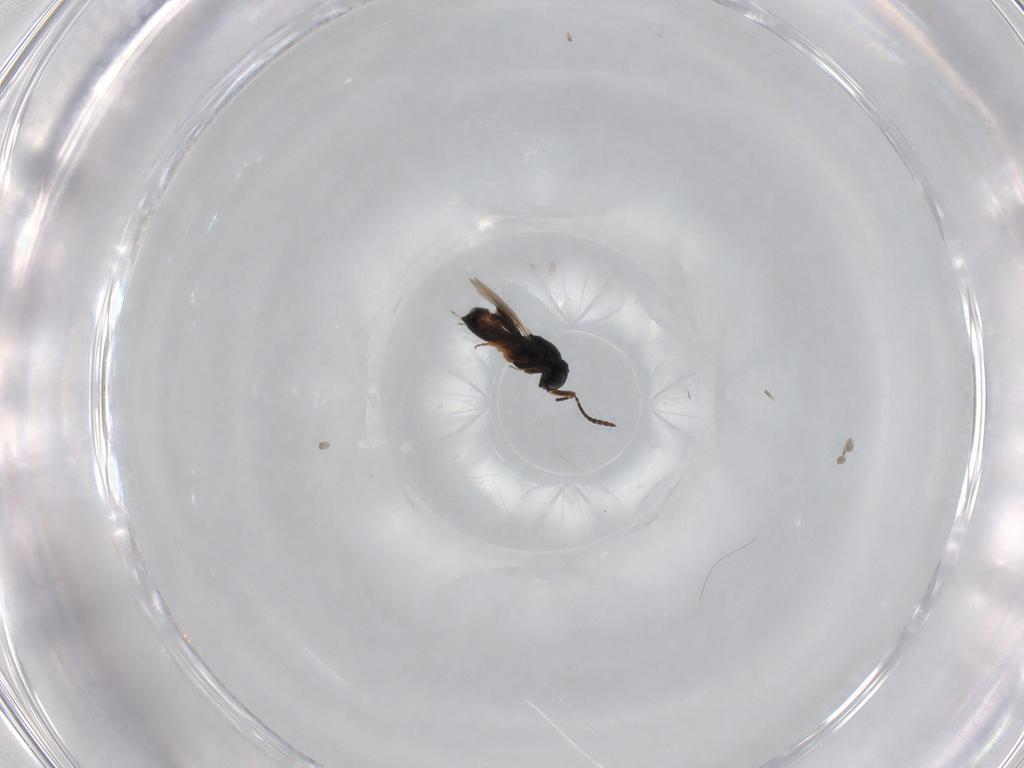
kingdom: Animalia
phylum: Arthropoda
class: Insecta
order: Hymenoptera
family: Scelionidae
